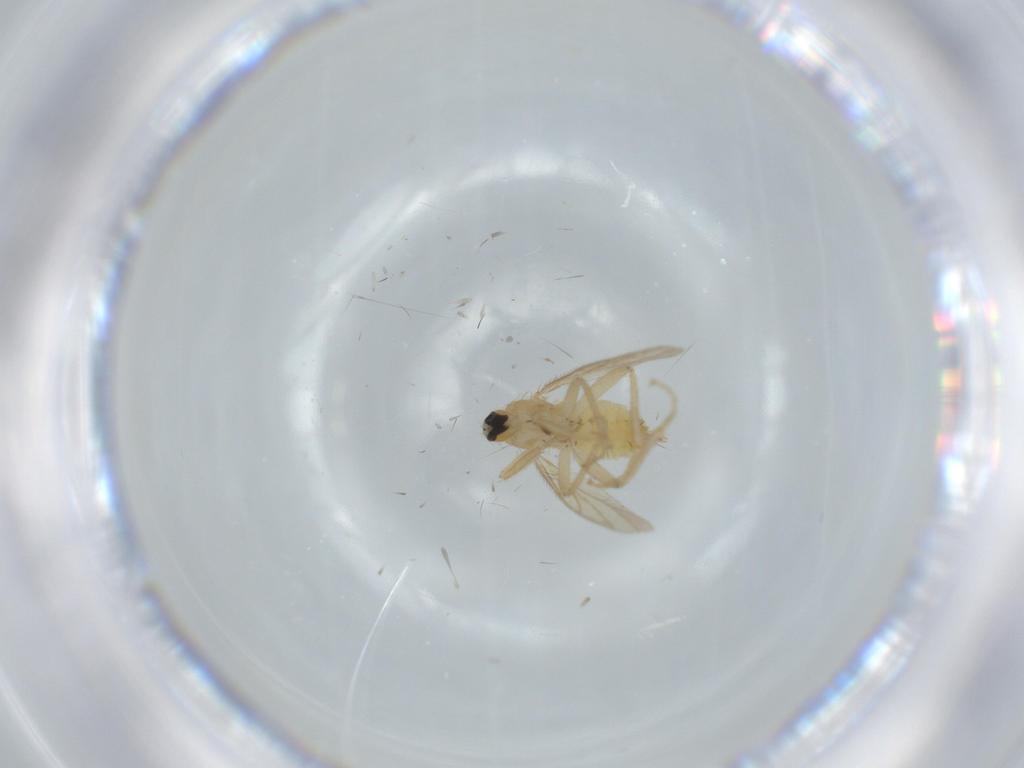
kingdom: Animalia
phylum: Arthropoda
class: Insecta
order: Diptera
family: Hybotidae
